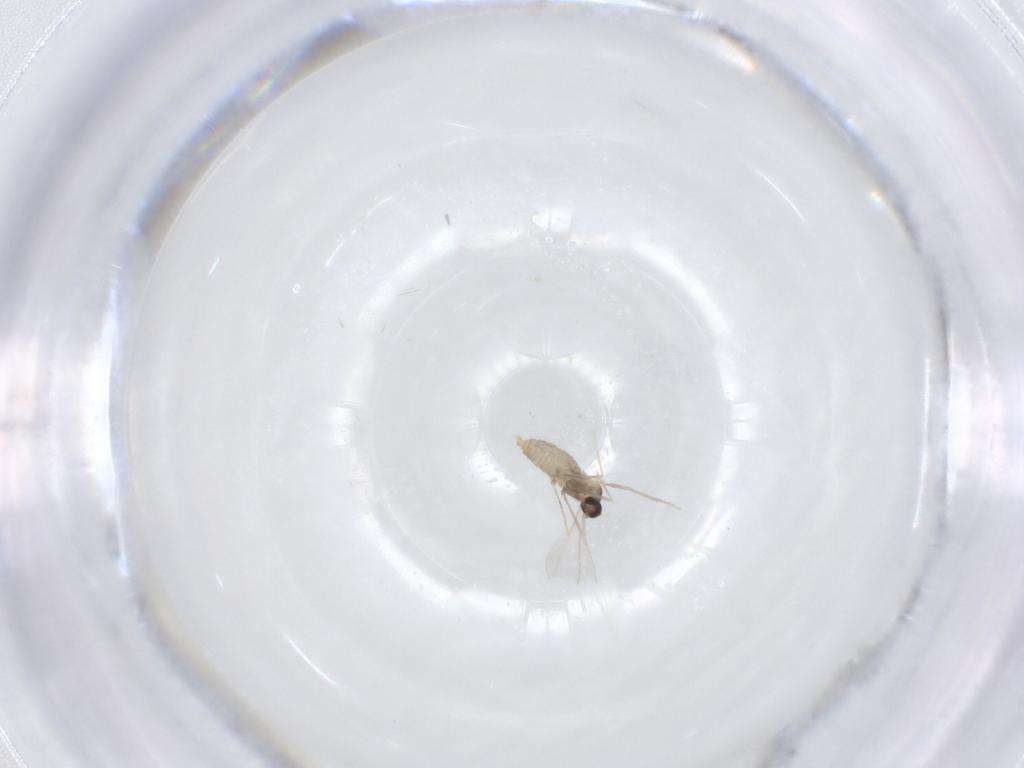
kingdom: Animalia
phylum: Arthropoda
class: Insecta
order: Diptera
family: Cecidomyiidae
